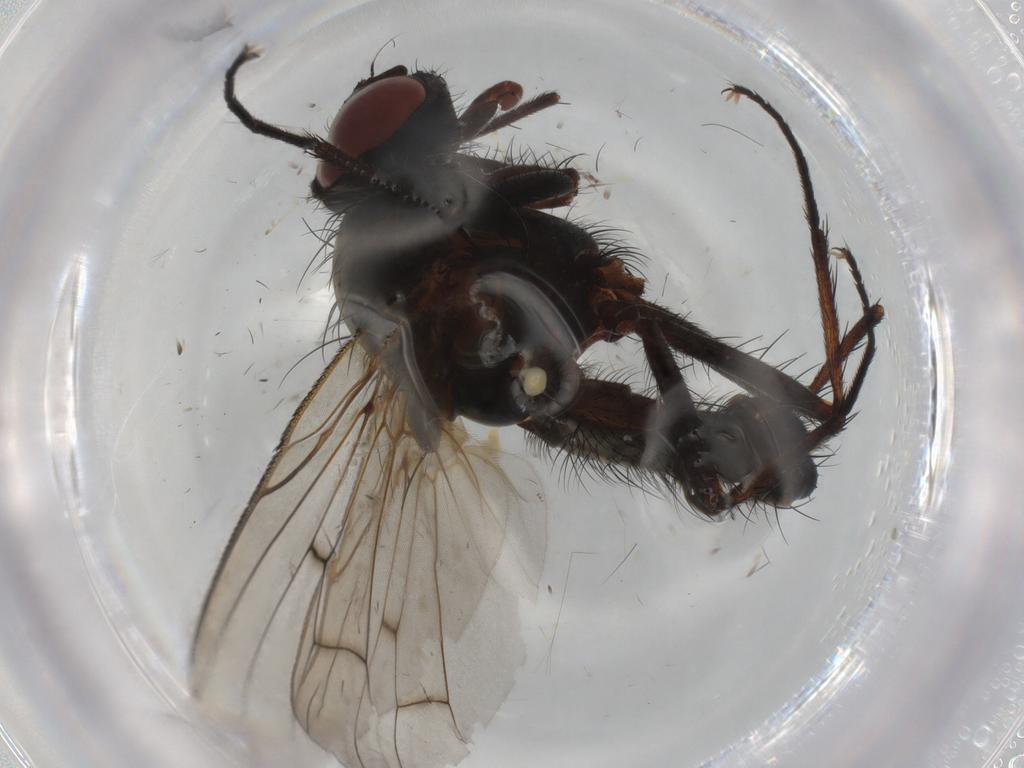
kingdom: Animalia
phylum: Arthropoda
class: Insecta
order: Diptera
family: Anthomyiidae
